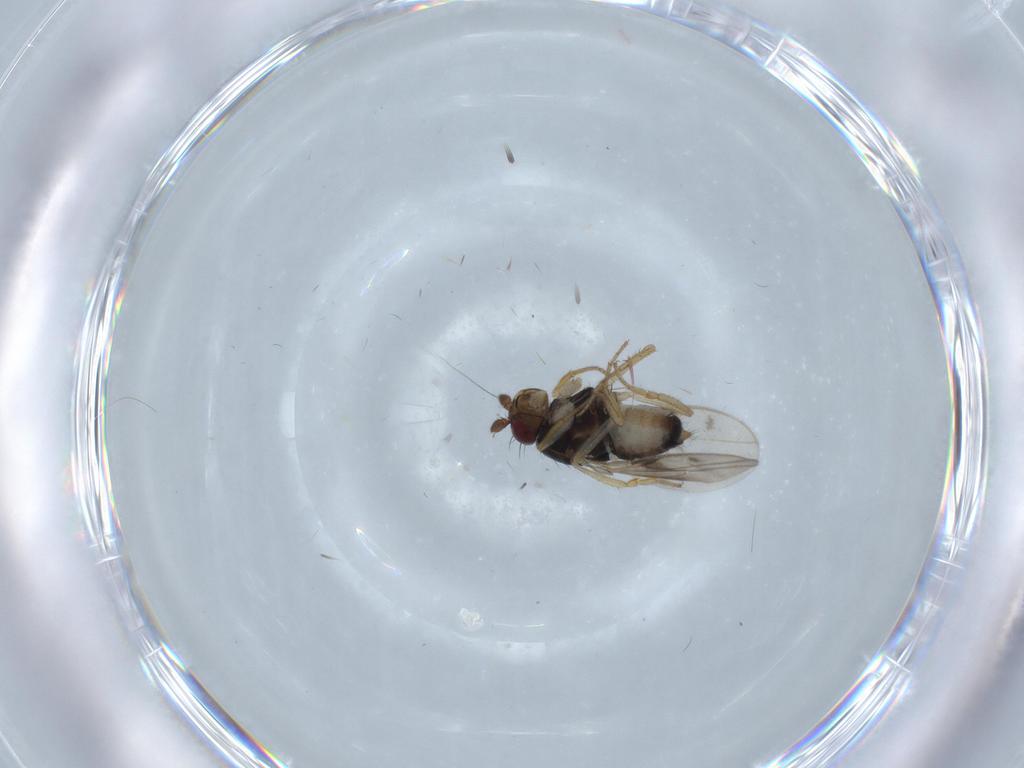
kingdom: Animalia
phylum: Arthropoda
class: Insecta
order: Diptera
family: Sphaeroceridae
